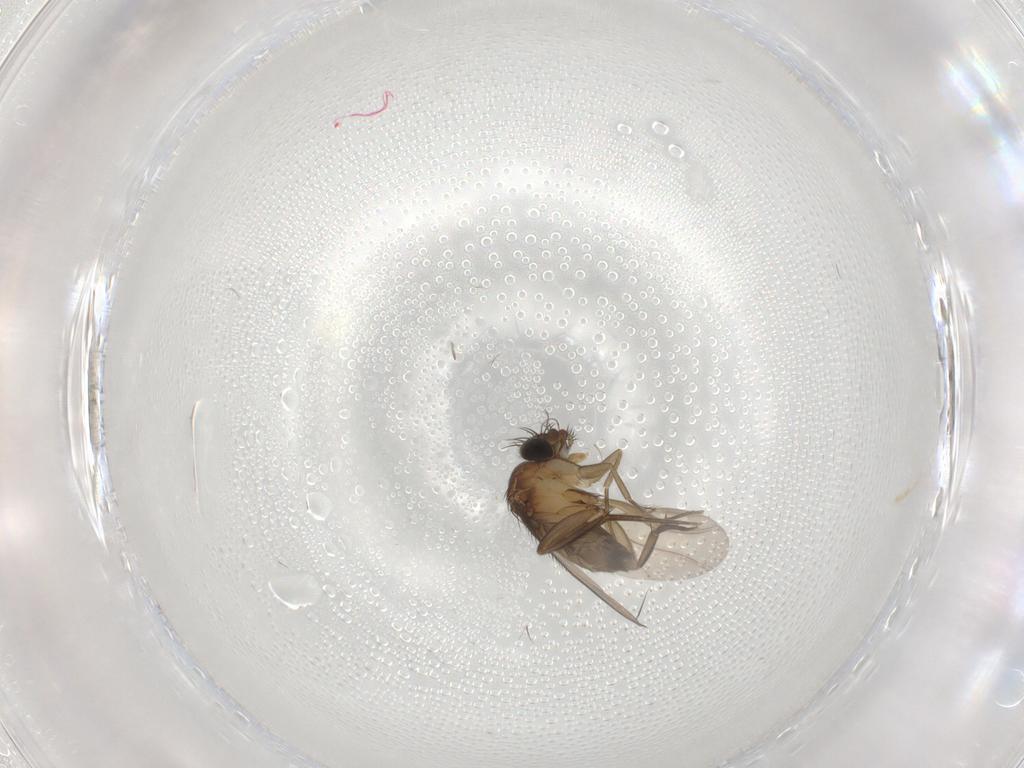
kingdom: Animalia
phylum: Arthropoda
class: Insecta
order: Diptera
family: Phoridae
